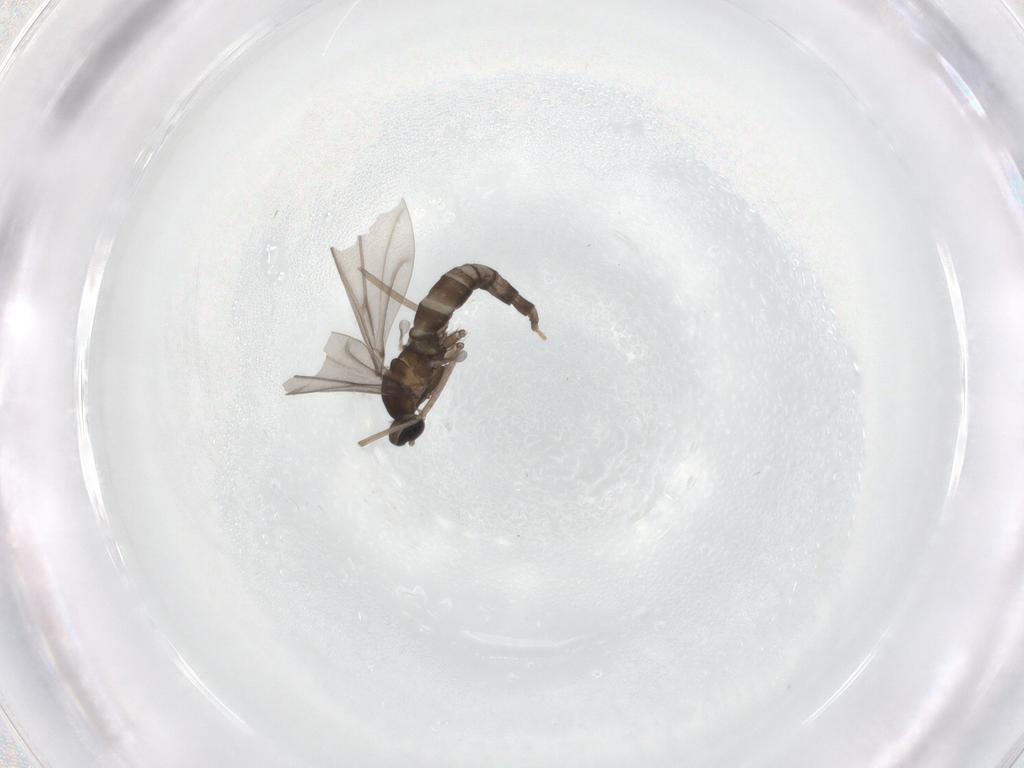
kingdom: Animalia
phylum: Arthropoda
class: Insecta
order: Diptera
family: Cecidomyiidae
